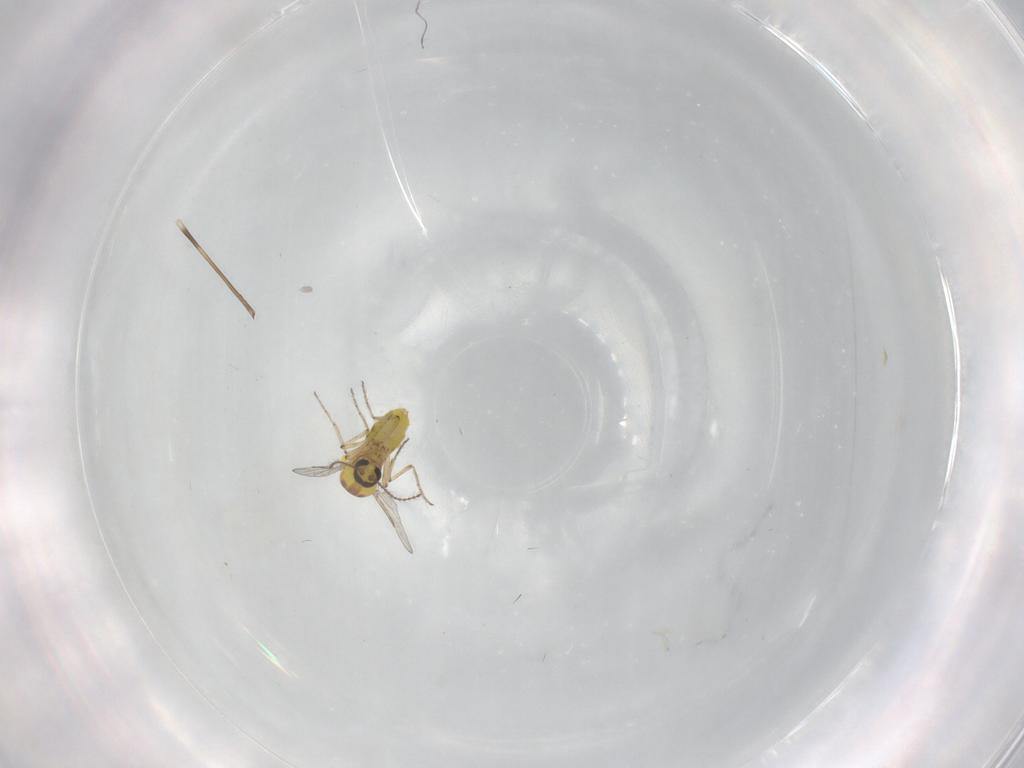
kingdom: Animalia
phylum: Arthropoda
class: Insecta
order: Diptera
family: Ceratopogonidae
